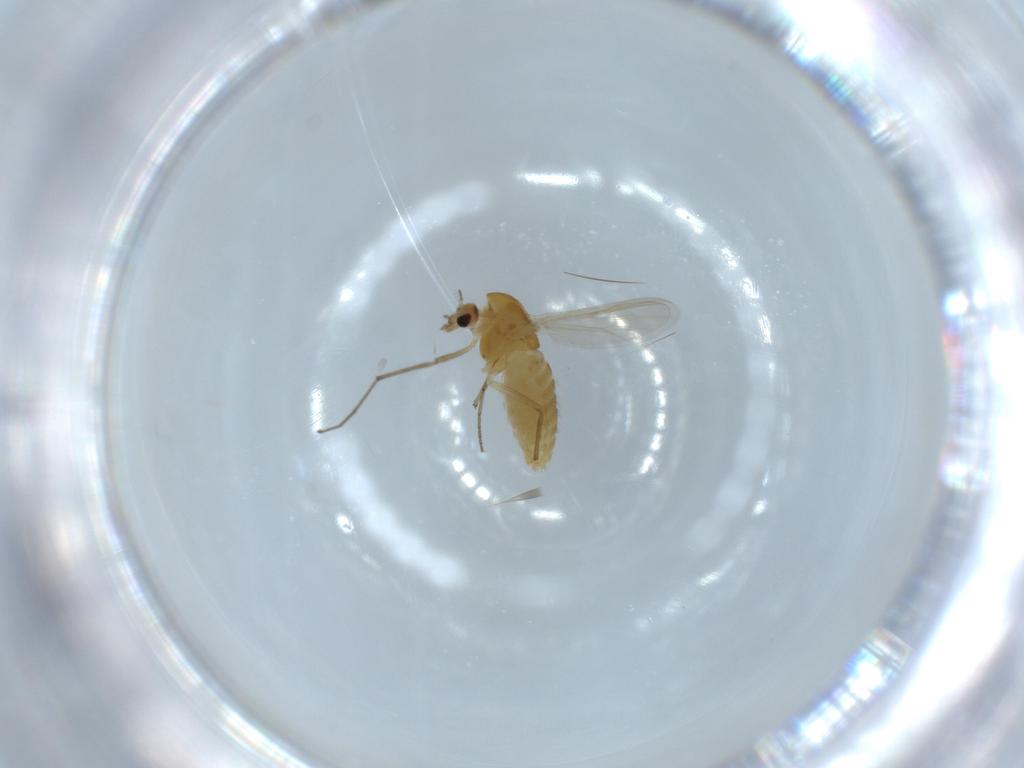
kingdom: Animalia
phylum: Arthropoda
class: Insecta
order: Diptera
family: Chironomidae
